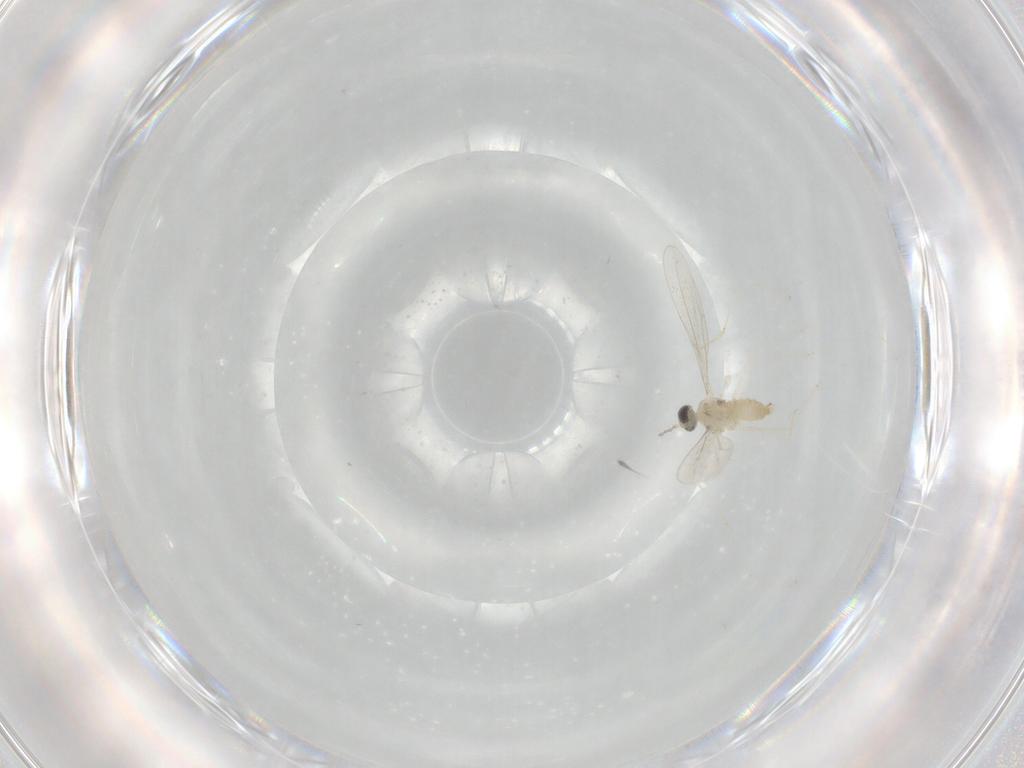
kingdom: Animalia
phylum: Arthropoda
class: Insecta
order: Diptera
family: Cecidomyiidae
